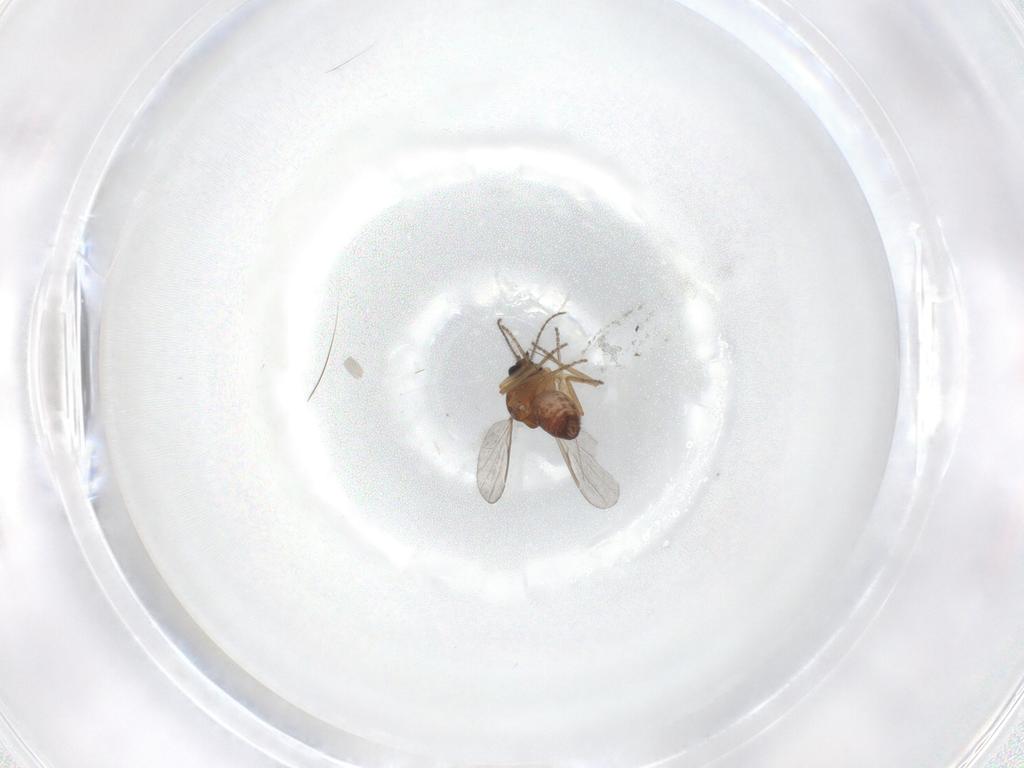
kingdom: Animalia
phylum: Arthropoda
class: Insecta
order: Diptera
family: Ceratopogonidae
